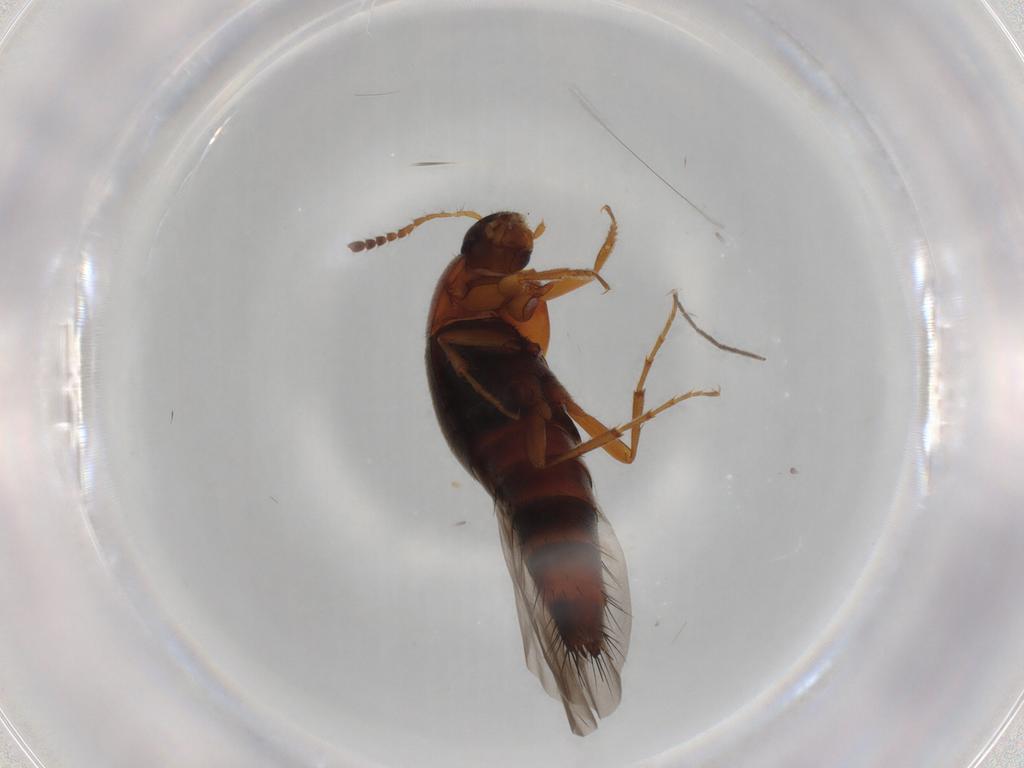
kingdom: Animalia
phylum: Arthropoda
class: Insecta
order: Coleoptera
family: Staphylinidae
